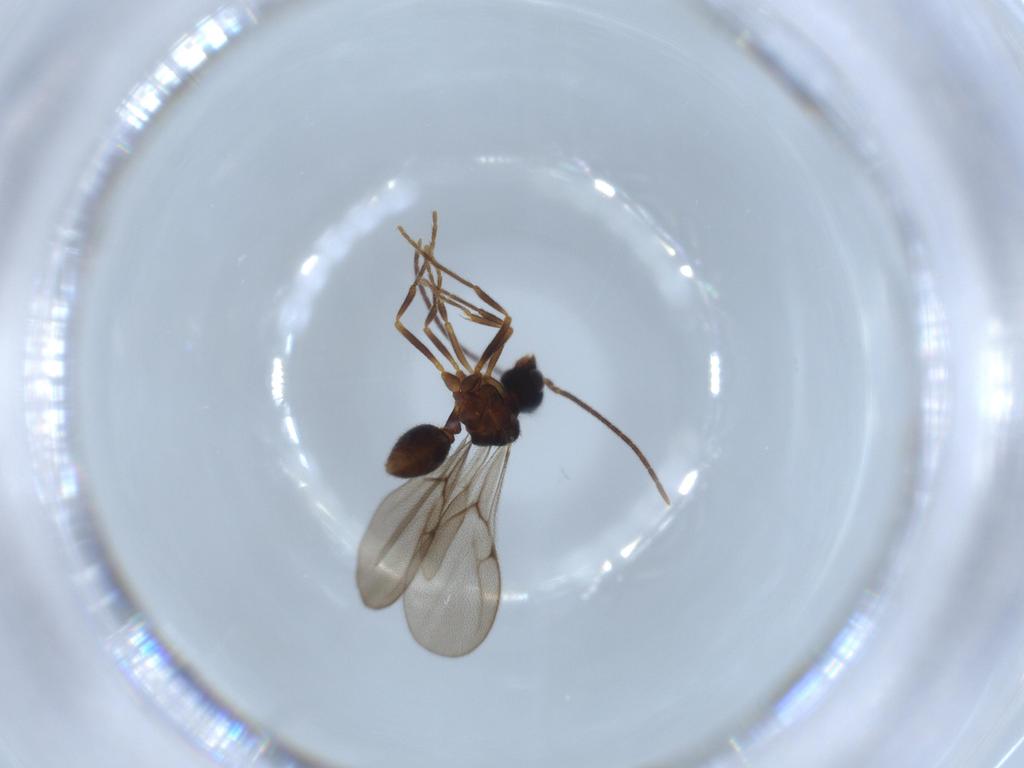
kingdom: Animalia
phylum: Arthropoda
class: Insecta
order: Hymenoptera
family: Formicidae
